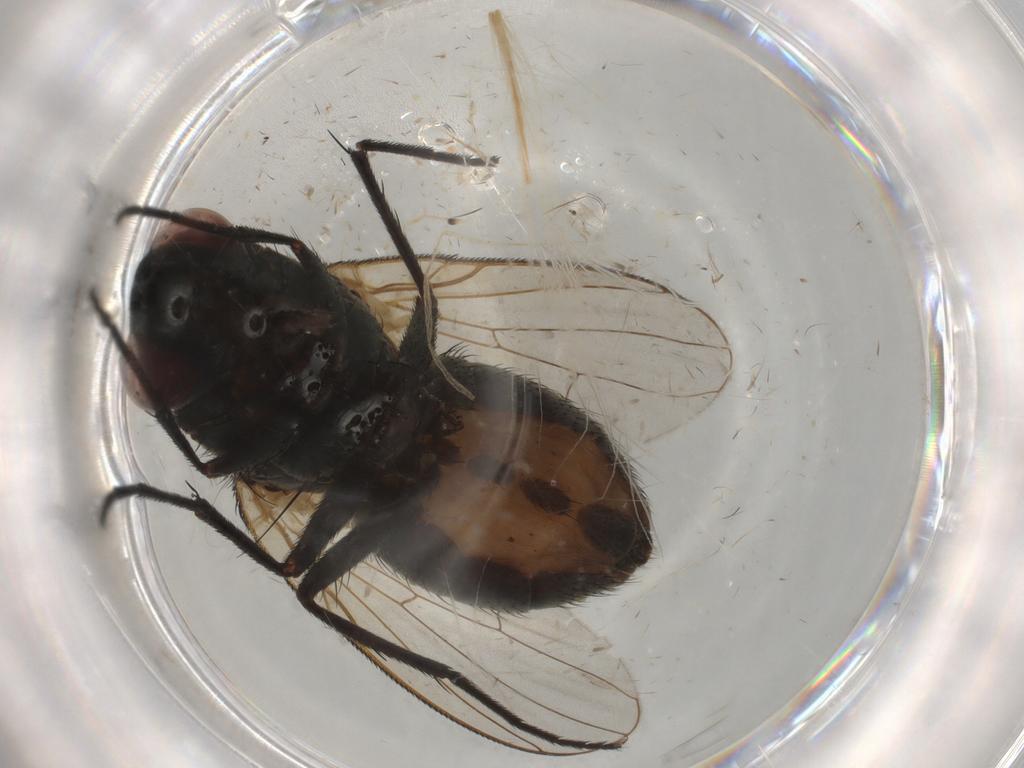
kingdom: Animalia
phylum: Arthropoda
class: Insecta
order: Diptera
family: Ceratopogonidae
